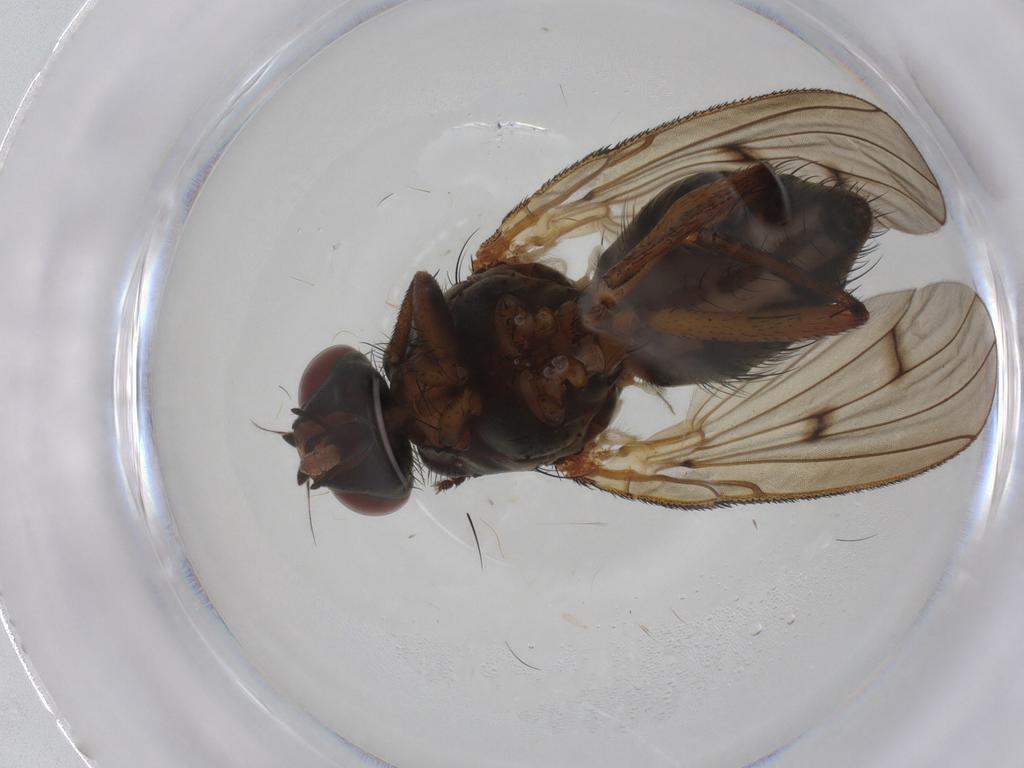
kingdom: Animalia
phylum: Arthropoda
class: Insecta
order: Diptera
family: Anthomyiidae
